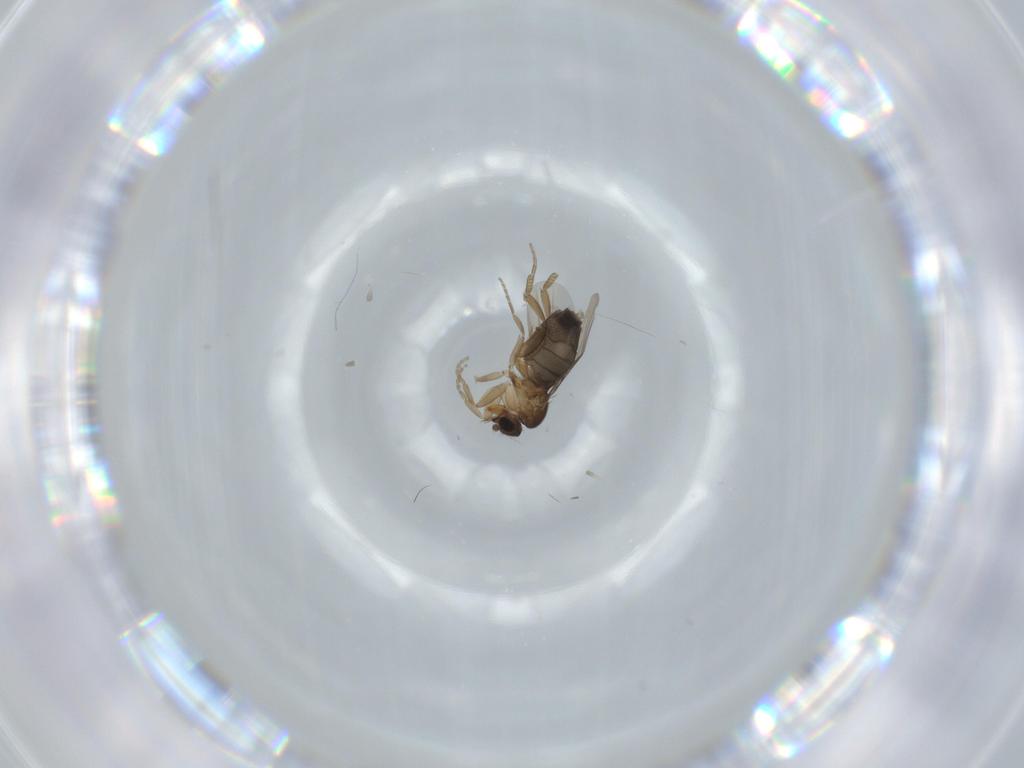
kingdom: Animalia
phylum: Arthropoda
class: Insecta
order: Diptera
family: Phoridae
